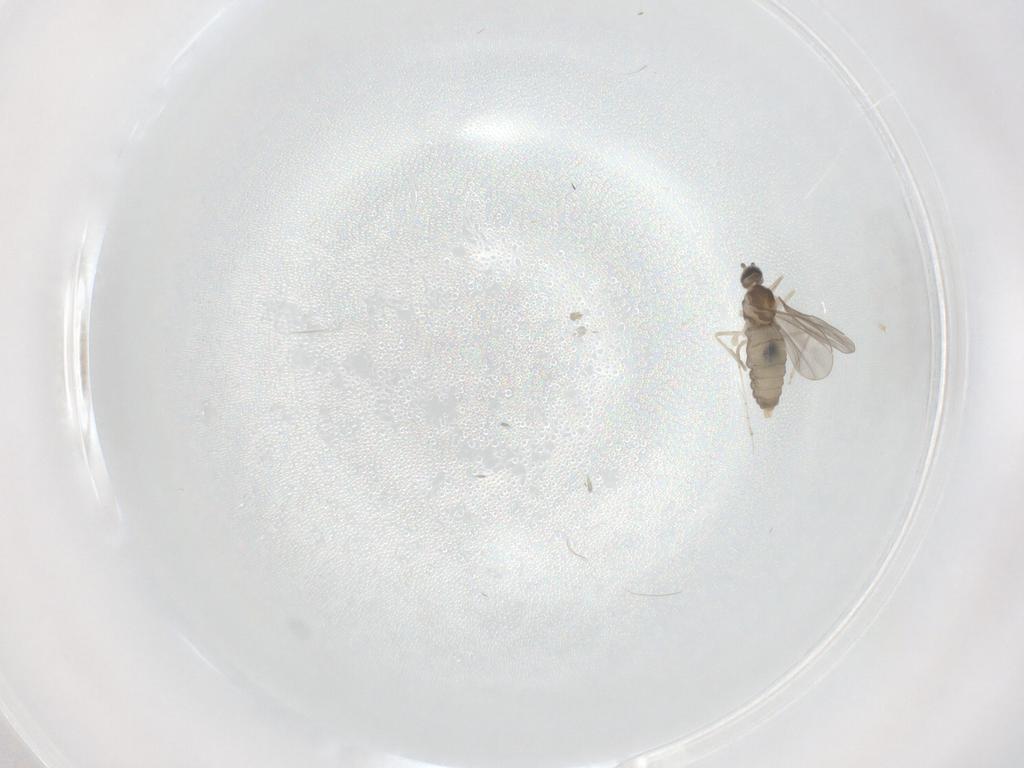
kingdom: Animalia
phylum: Arthropoda
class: Insecta
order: Diptera
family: Cecidomyiidae
